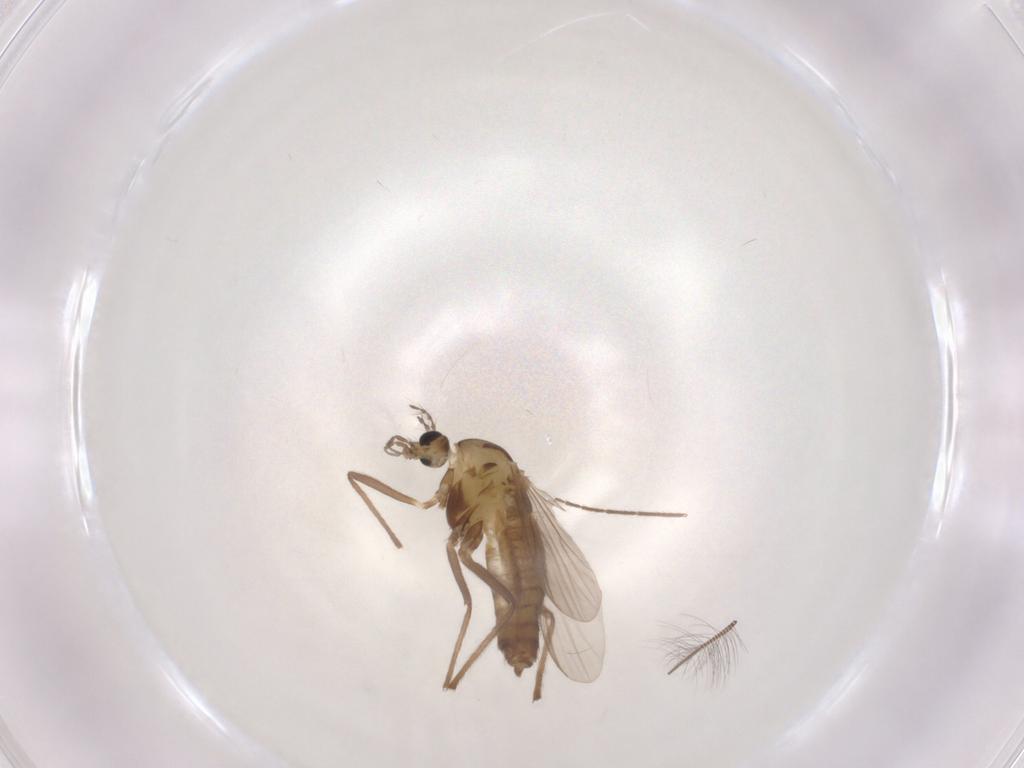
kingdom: Animalia
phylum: Arthropoda
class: Insecta
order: Diptera
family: Chironomidae
